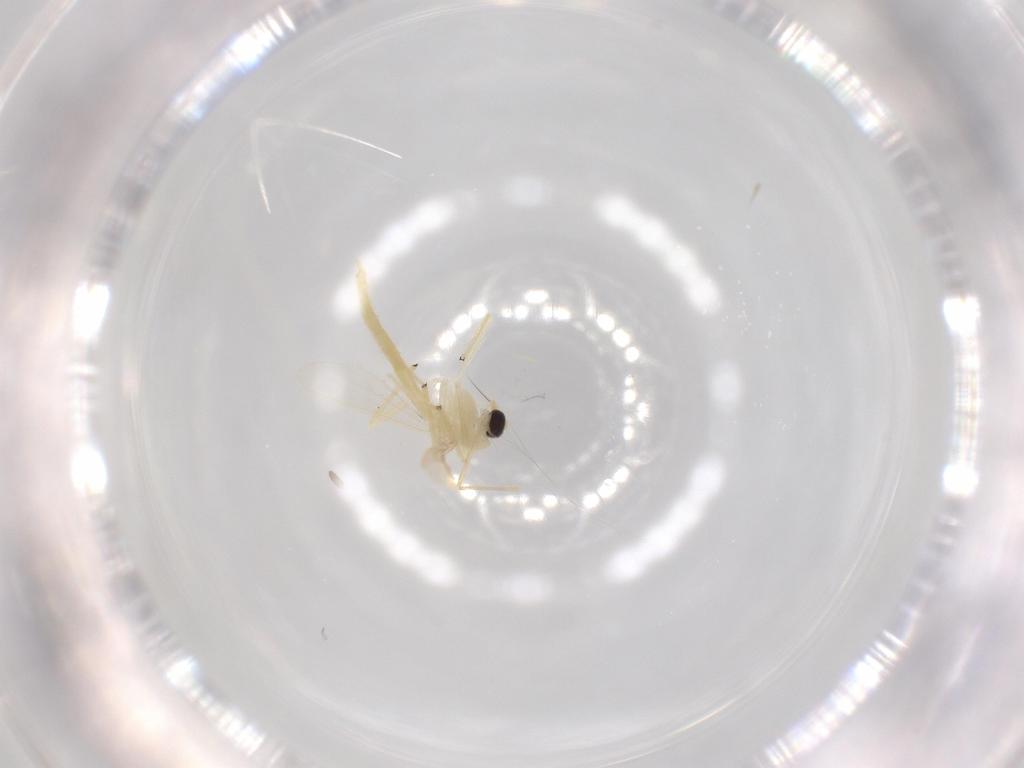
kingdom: Animalia
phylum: Arthropoda
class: Insecta
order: Diptera
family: Chironomidae
